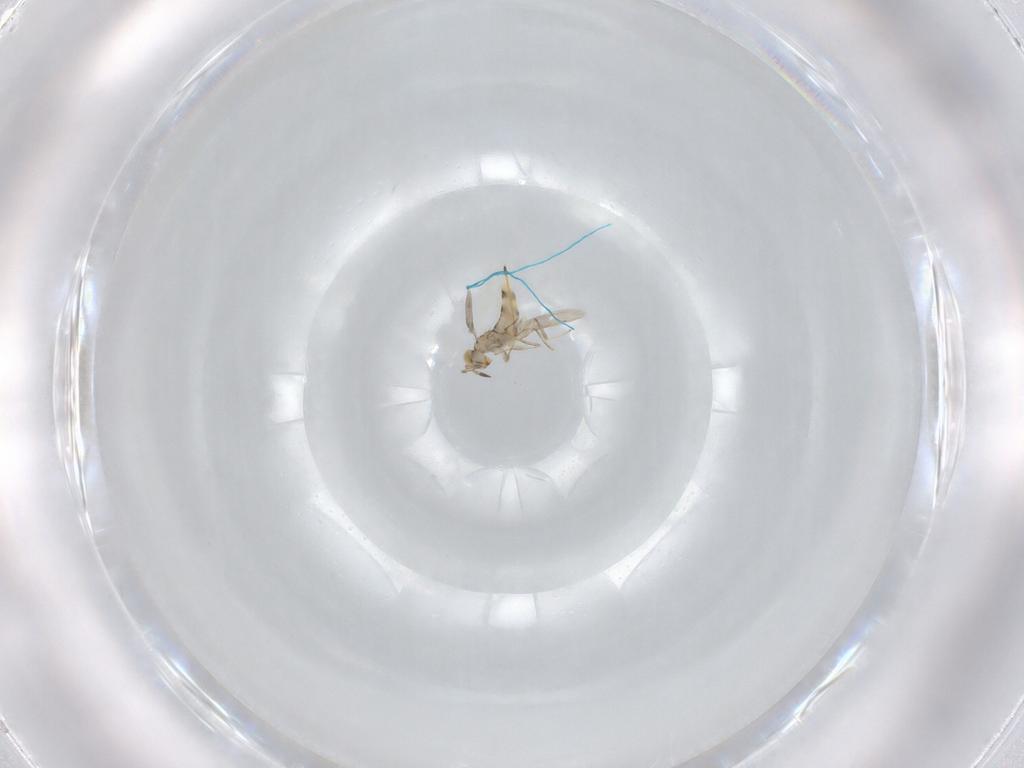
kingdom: Animalia
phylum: Arthropoda
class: Insecta
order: Hymenoptera
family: Aphelinidae
